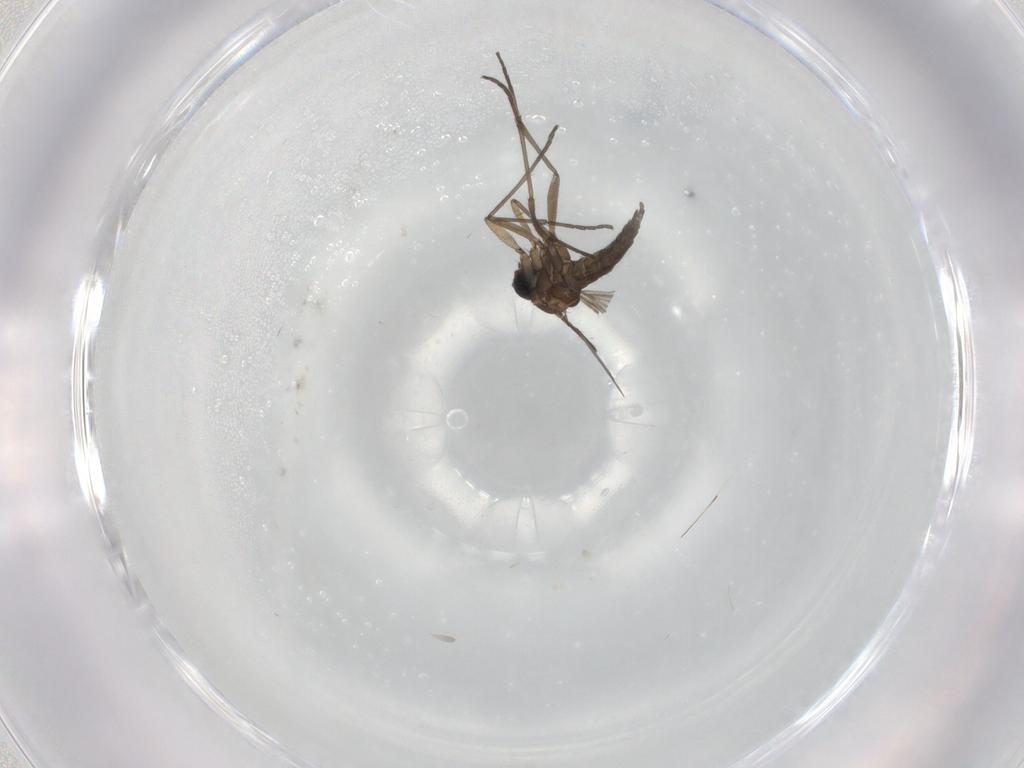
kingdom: Animalia
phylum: Arthropoda
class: Insecta
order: Diptera
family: Sciaridae
